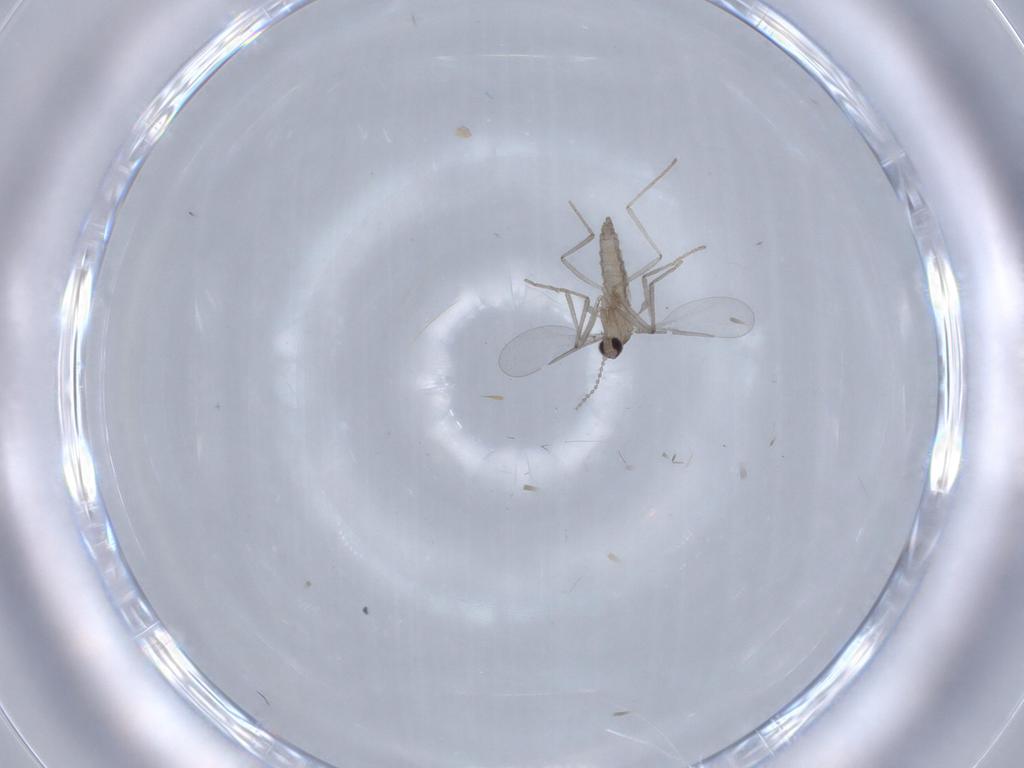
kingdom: Animalia
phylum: Arthropoda
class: Insecta
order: Diptera
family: Cecidomyiidae
